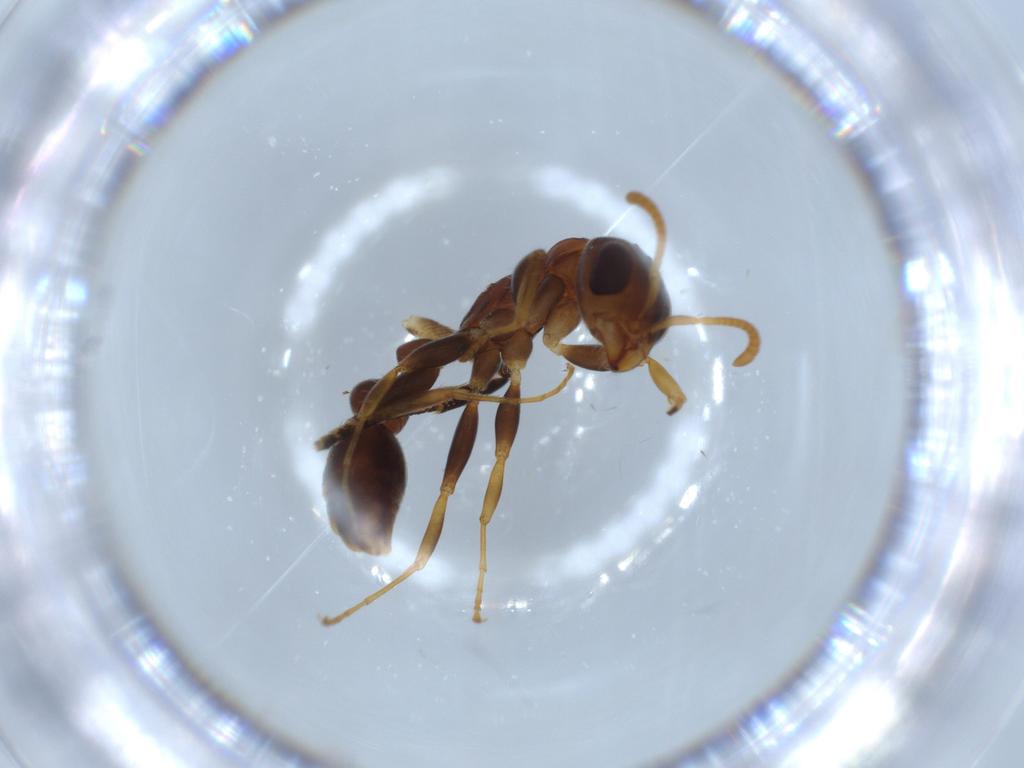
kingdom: Animalia
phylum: Arthropoda
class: Insecta
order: Hymenoptera
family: Formicidae
